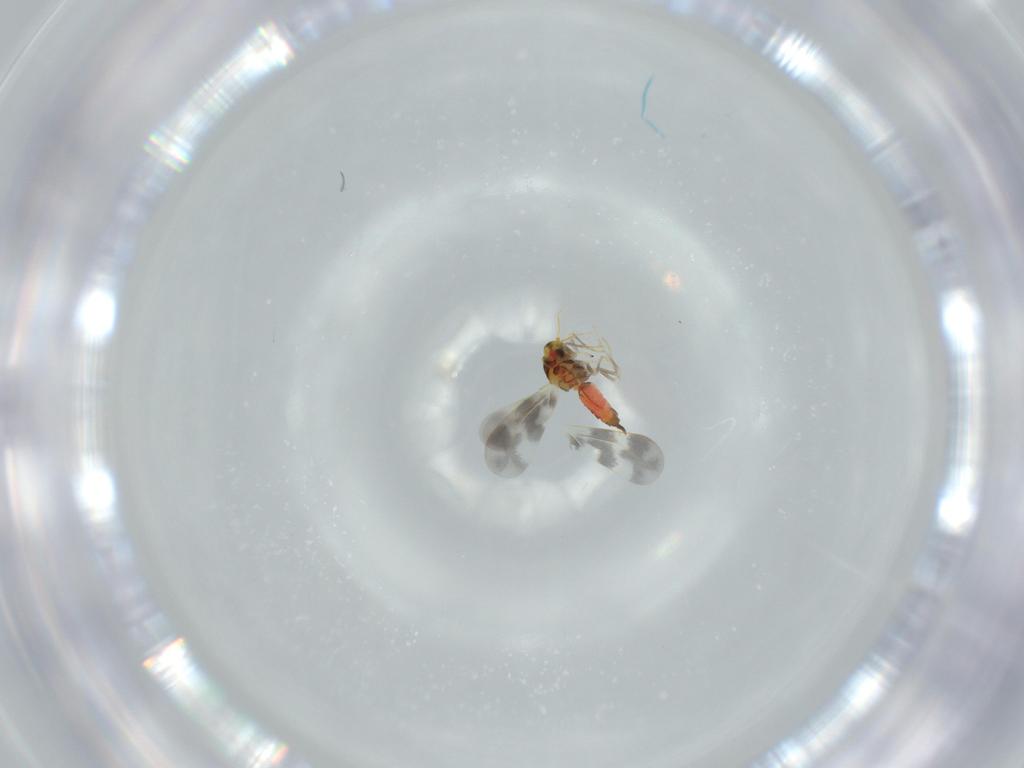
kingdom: Animalia
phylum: Arthropoda
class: Insecta
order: Hemiptera
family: Aleyrodidae
